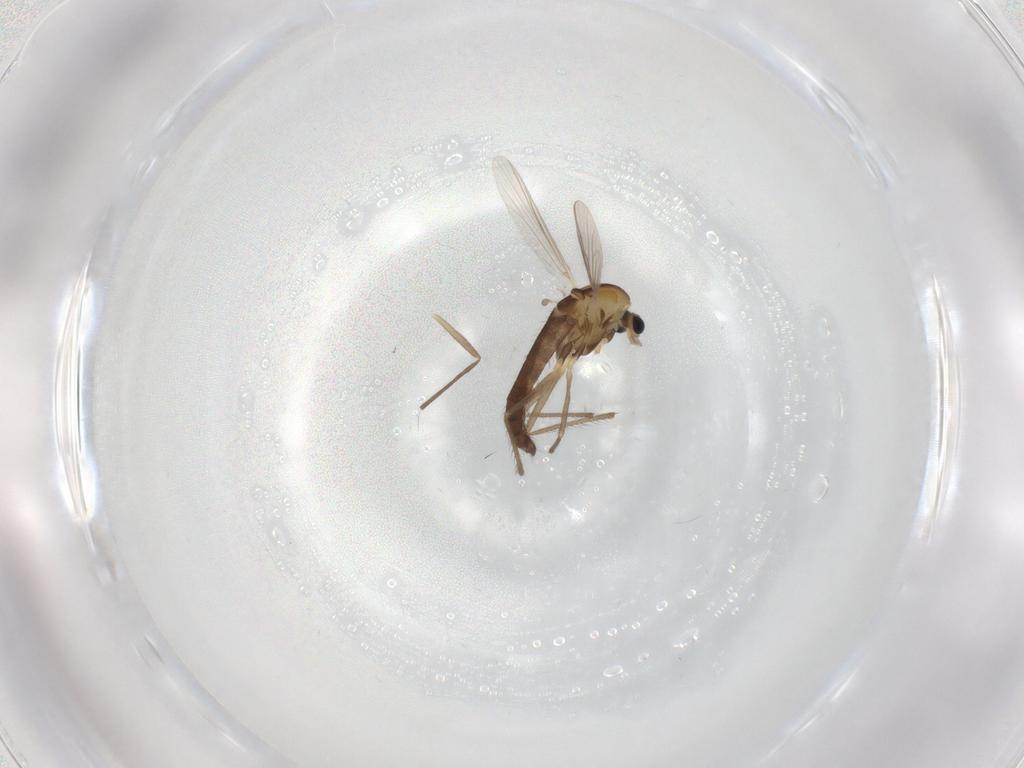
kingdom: Animalia
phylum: Arthropoda
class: Insecta
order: Diptera
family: Chironomidae
